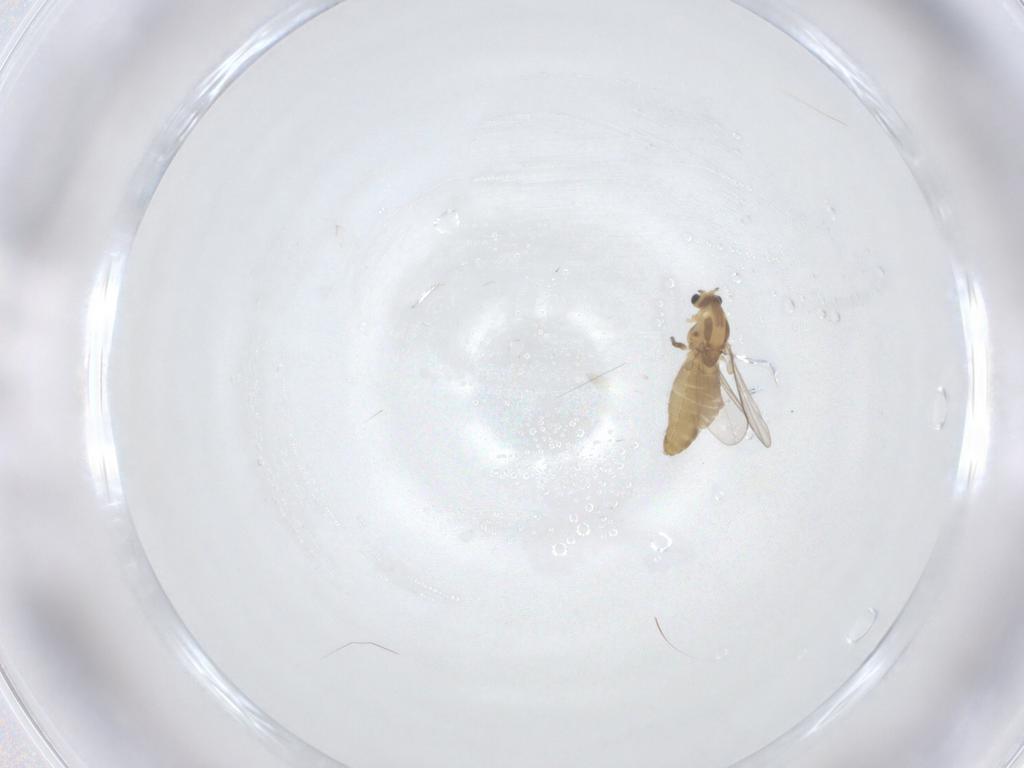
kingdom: Animalia
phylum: Arthropoda
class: Insecta
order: Diptera
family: Chironomidae
